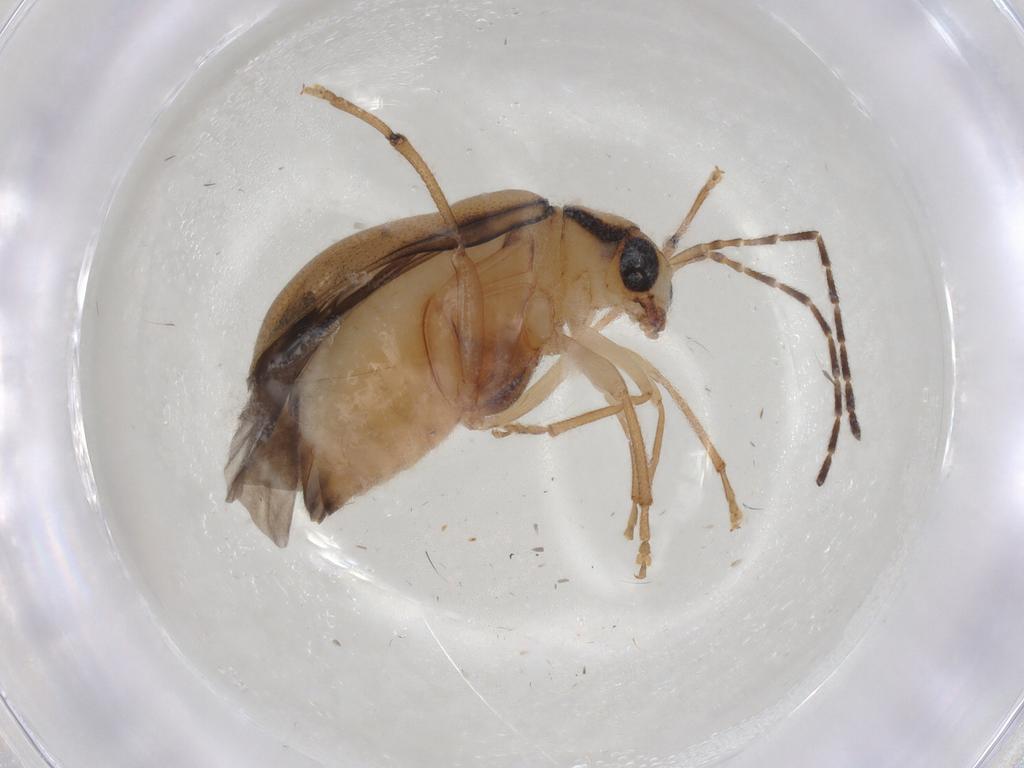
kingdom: Animalia
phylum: Arthropoda
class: Insecta
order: Coleoptera
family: Chrysomelidae
